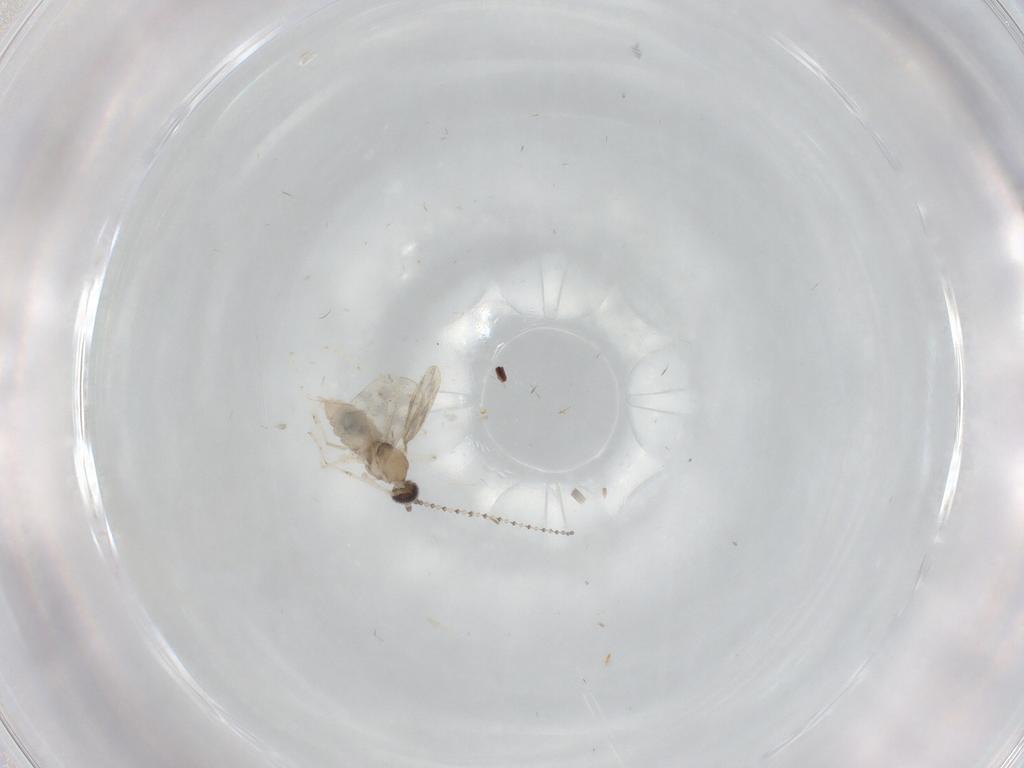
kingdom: Animalia
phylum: Arthropoda
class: Insecta
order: Diptera
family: Cecidomyiidae
